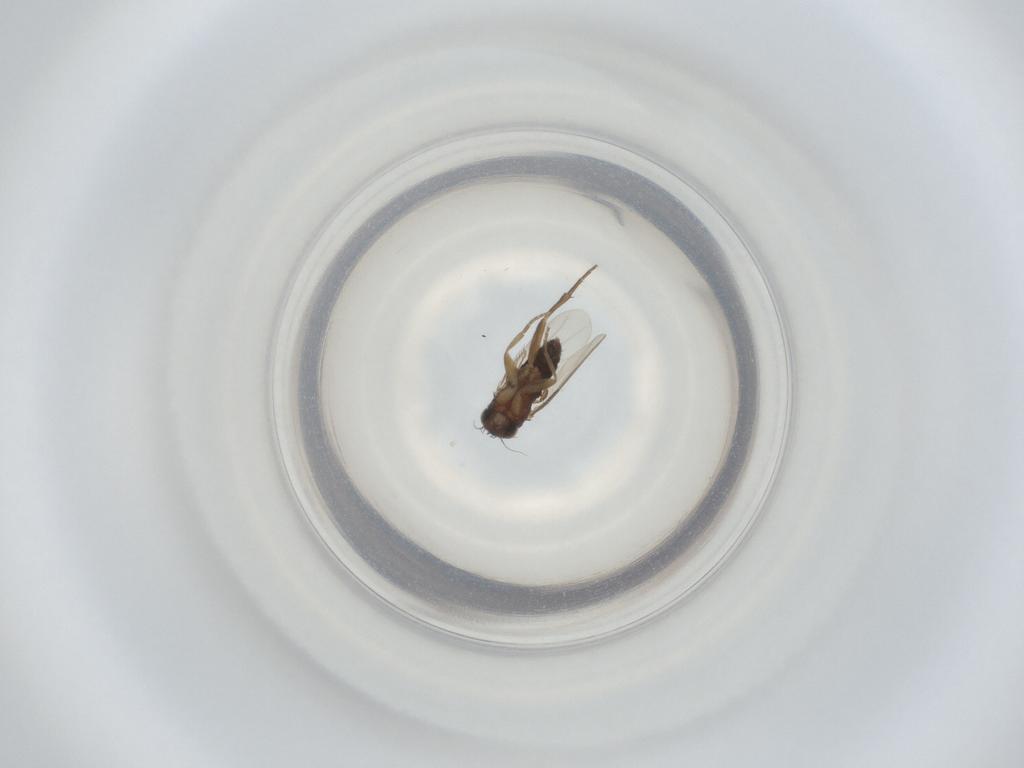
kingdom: Animalia
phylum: Arthropoda
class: Insecta
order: Diptera
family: Phoridae
